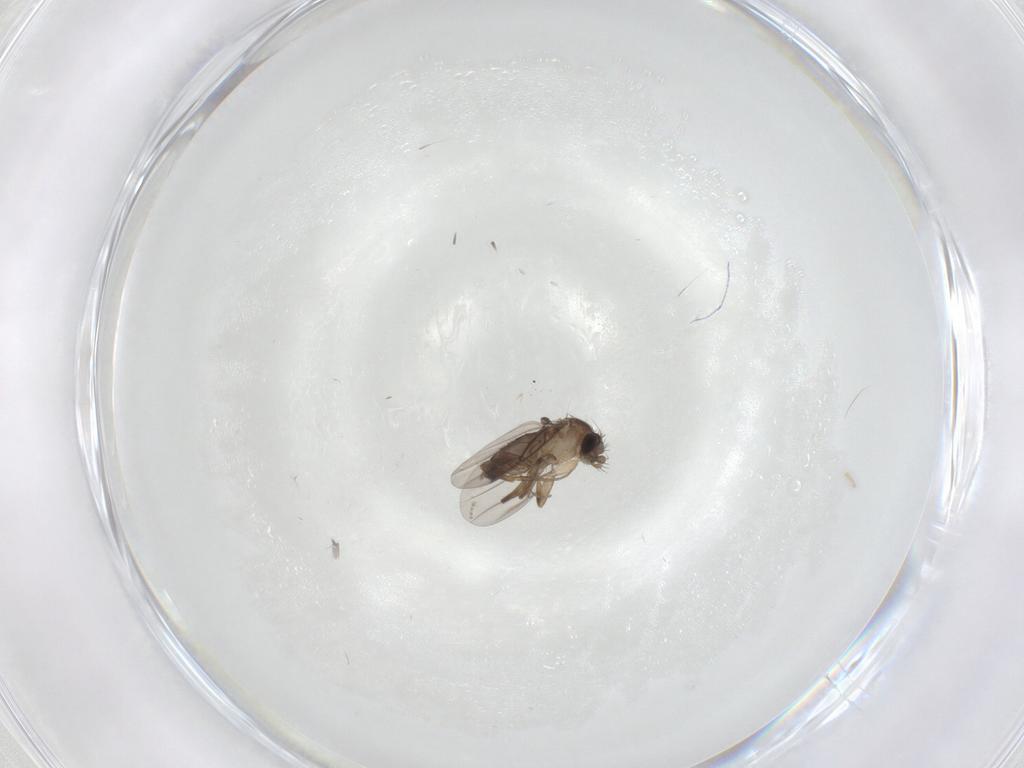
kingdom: Animalia
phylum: Arthropoda
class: Insecta
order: Diptera
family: Phoridae
